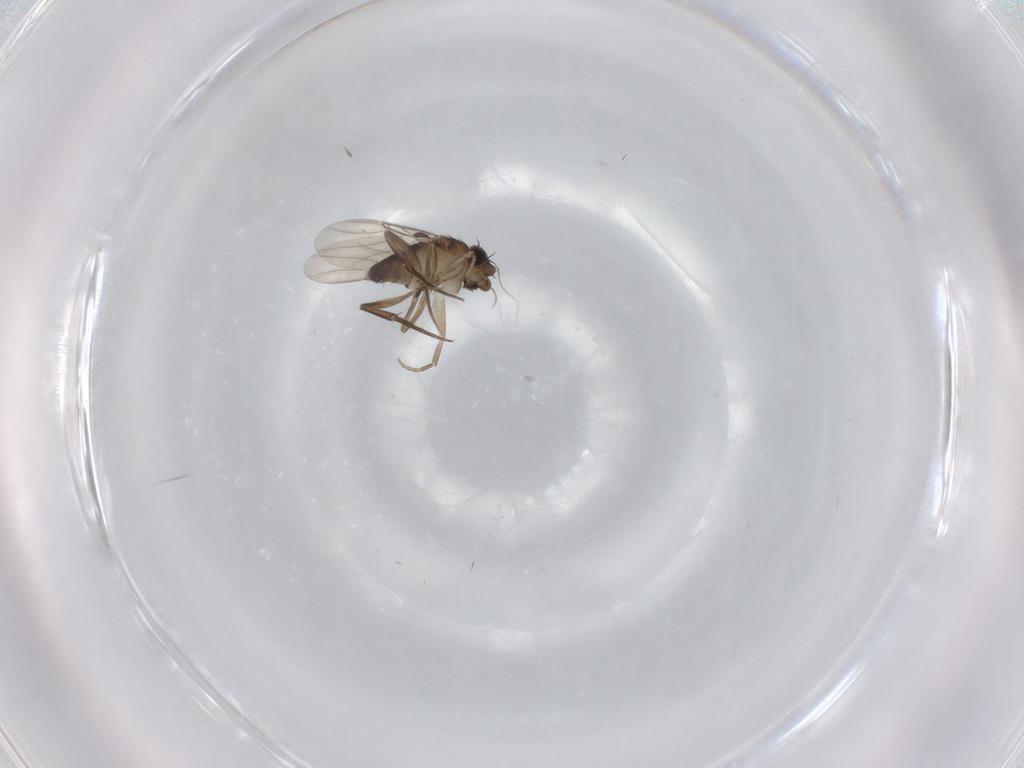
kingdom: Animalia
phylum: Arthropoda
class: Insecta
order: Diptera
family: Phoridae
